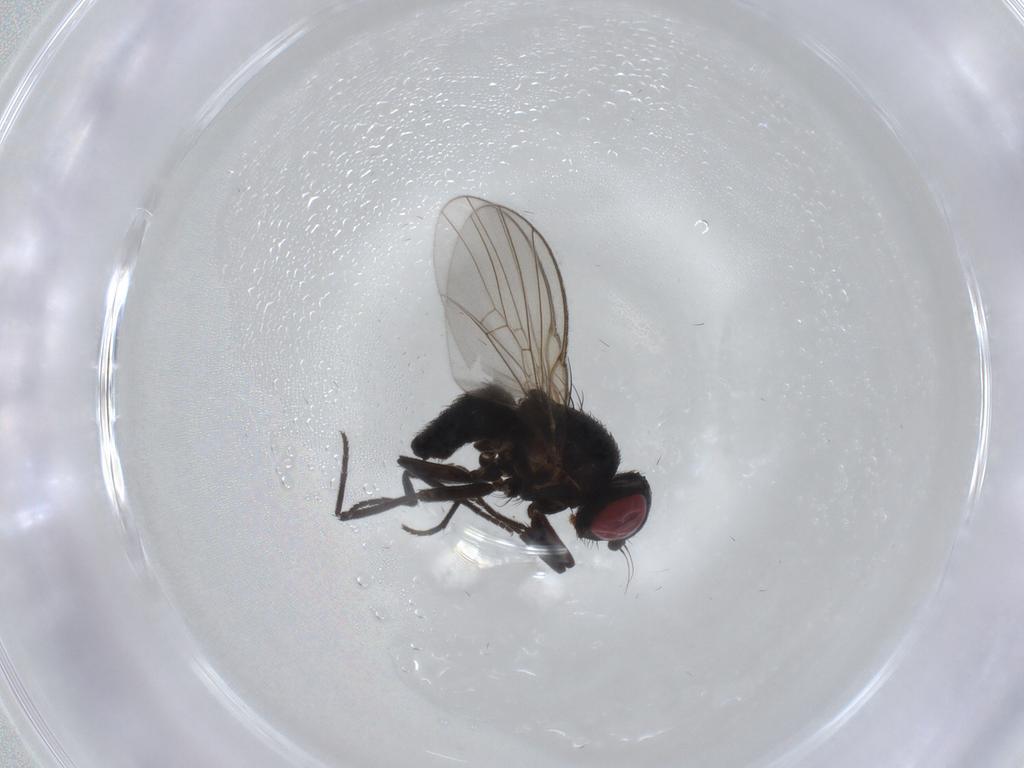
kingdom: Animalia
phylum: Arthropoda
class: Insecta
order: Diptera
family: Agromyzidae
